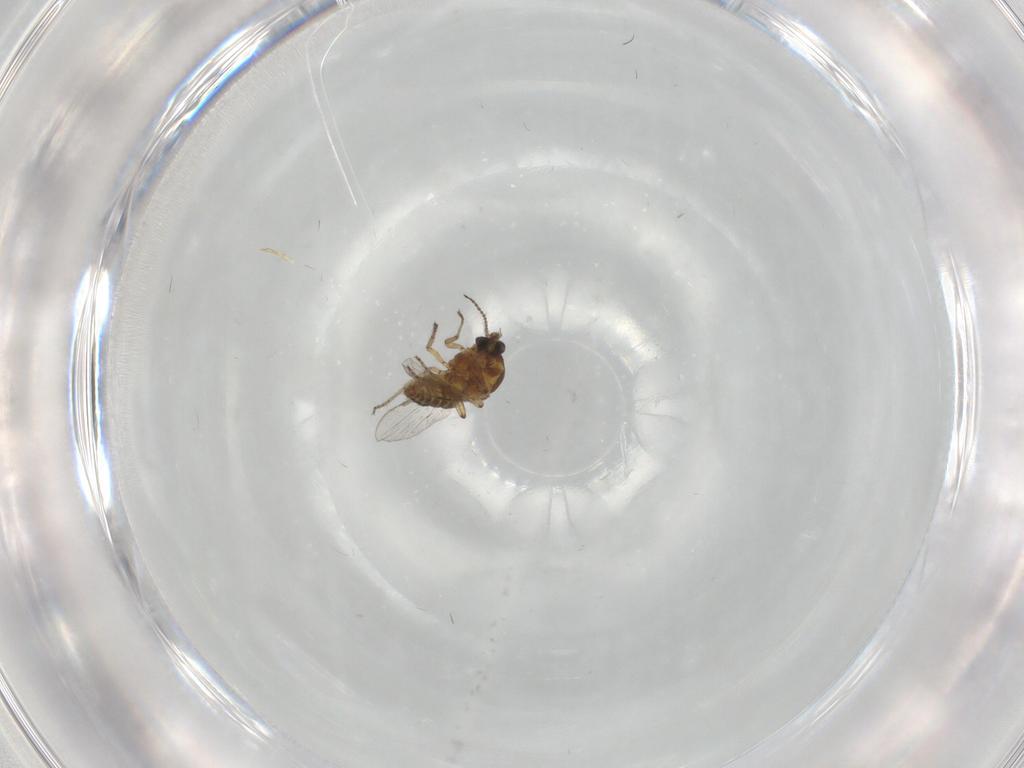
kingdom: Animalia
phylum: Arthropoda
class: Insecta
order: Diptera
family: Ceratopogonidae
